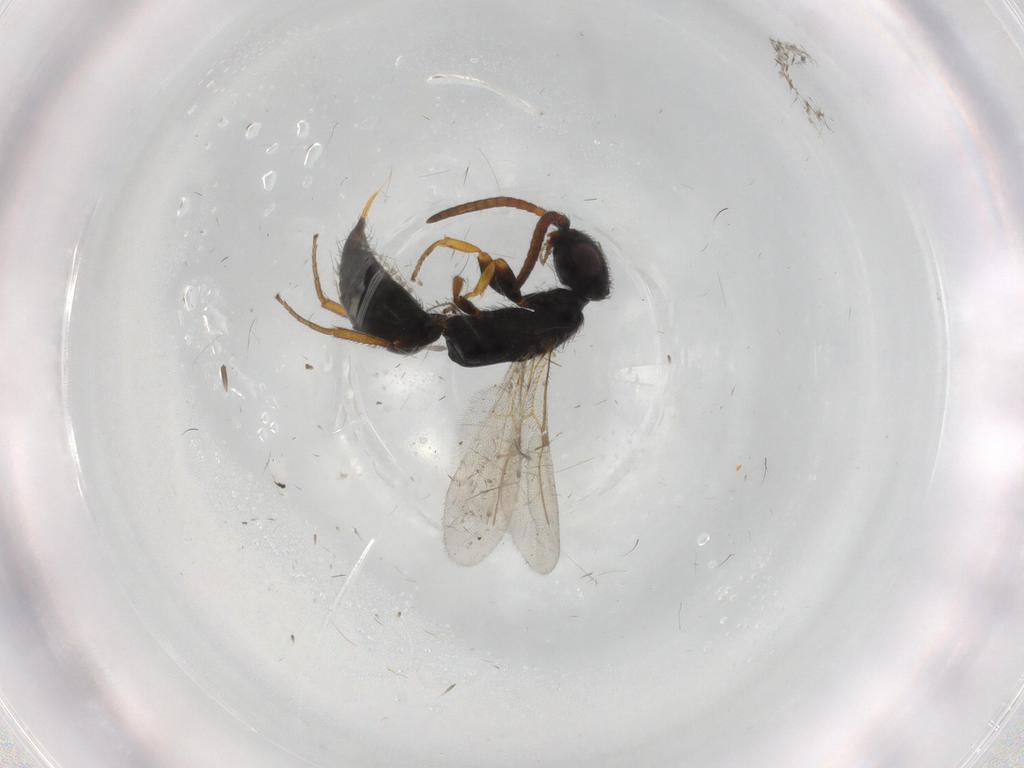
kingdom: Animalia
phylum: Arthropoda
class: Insecta
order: Hymenoptera
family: Bethylidae
